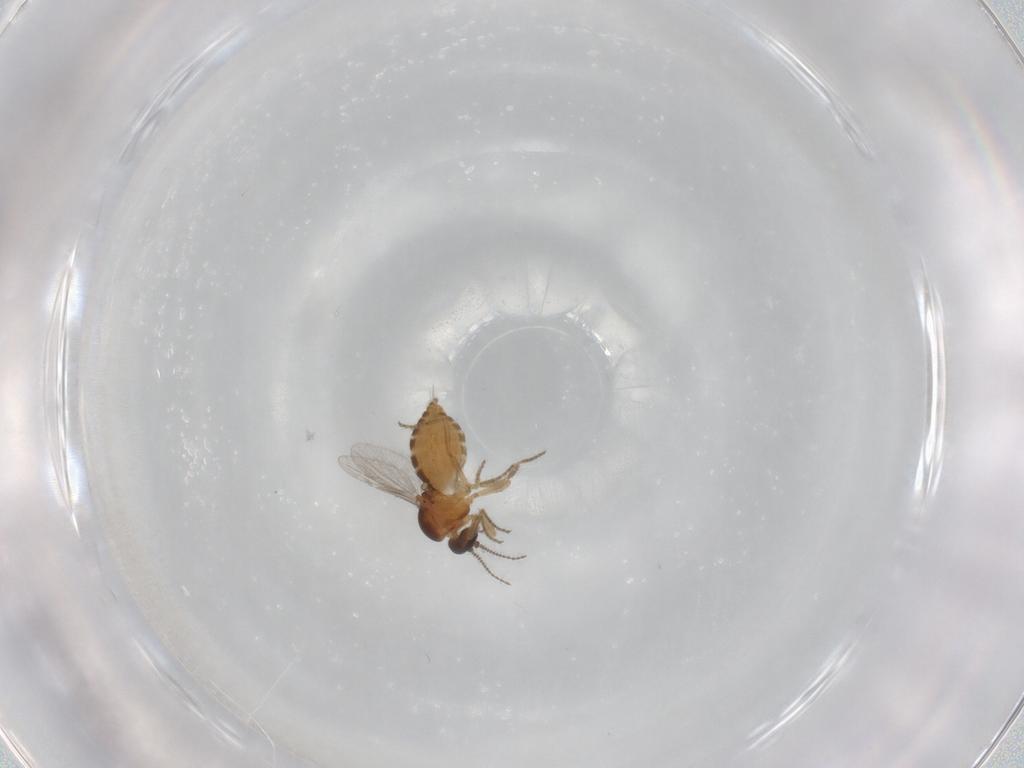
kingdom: Animalia
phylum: Arthropoda
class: Insecta
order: Diptera
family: Ceratopogonidae
